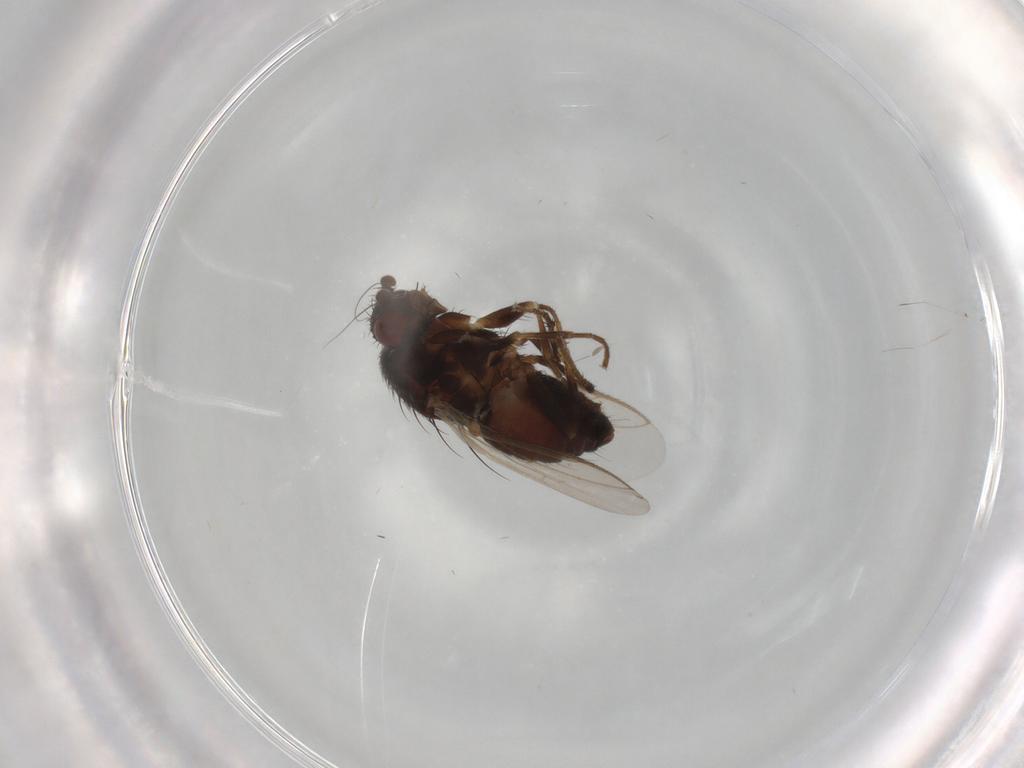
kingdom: Animalia
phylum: Arthropoda
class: Insecta
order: Diptera
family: Sphaeroceridae
